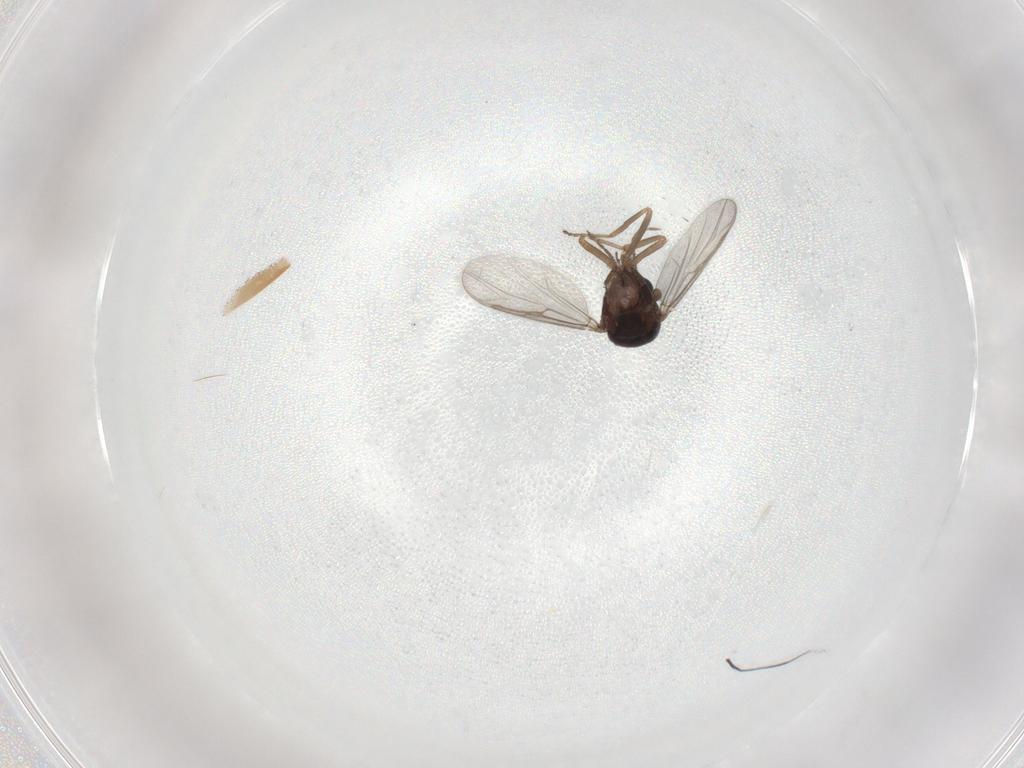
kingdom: Animalia
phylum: Arthropoda
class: Insecta
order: Diptera
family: Ceratopogonidae
